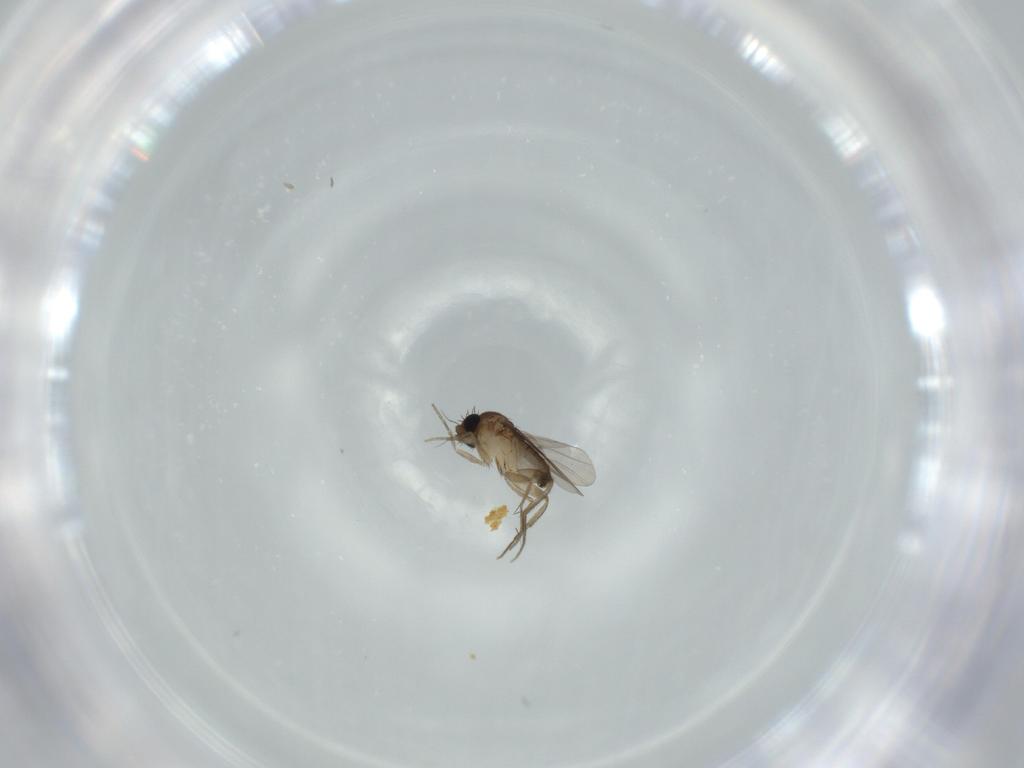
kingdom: Animalia
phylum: Arthropoda
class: Insecta
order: Diptera
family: Phoridae
